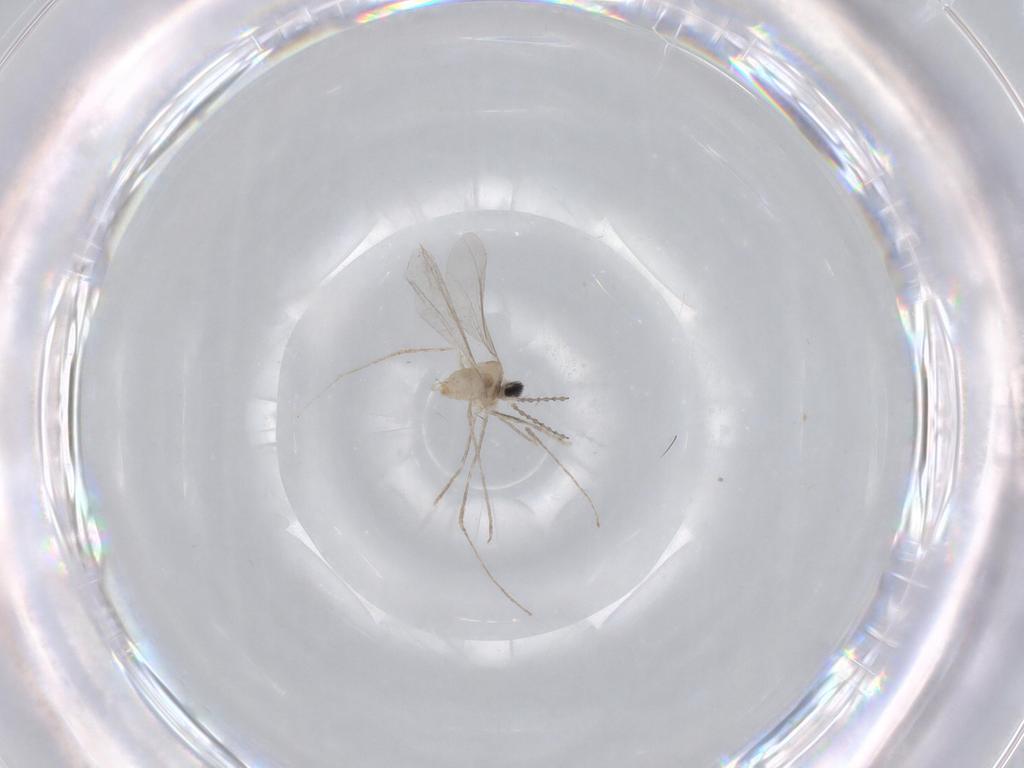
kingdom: Animalia
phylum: Arthropoda
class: Insecta
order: Diptera
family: Cecidomyiidae
